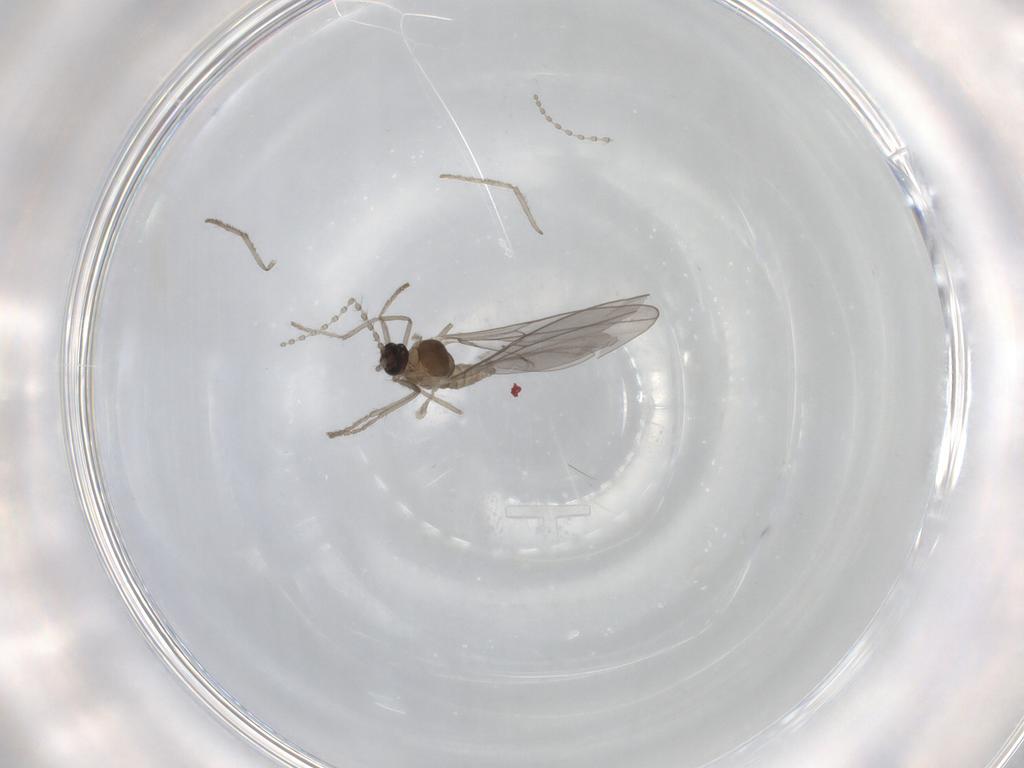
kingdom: Animalia
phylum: Arthropoda
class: Insecta
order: Diptera
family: Cecidomyiidae
